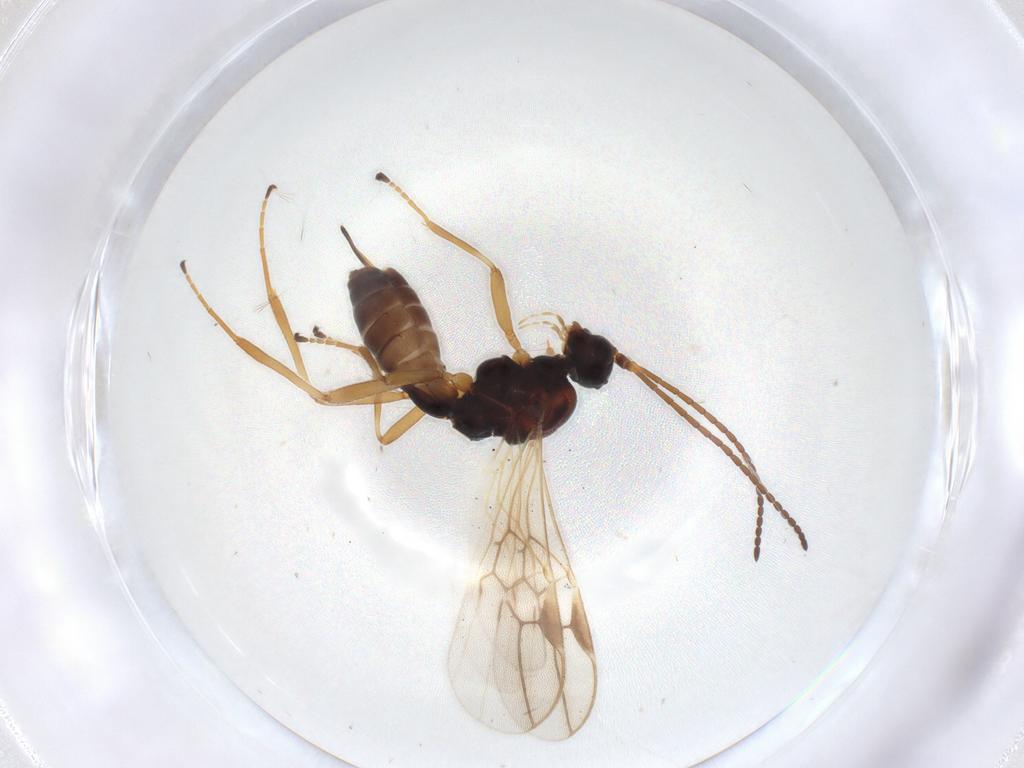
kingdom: Animalia
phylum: Arthropoda
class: Insecta
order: Hymenoptera
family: Braconidae
